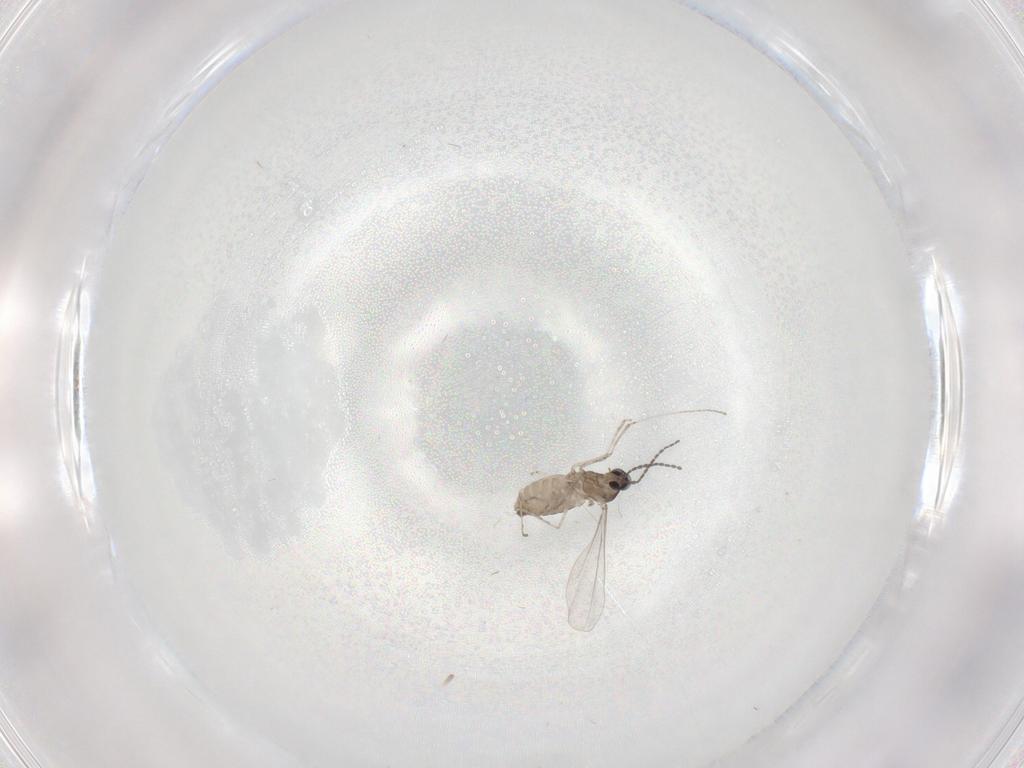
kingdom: Animalia
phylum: Arthropoda
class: Insecta
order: Diptera
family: Cecidomyiidae
